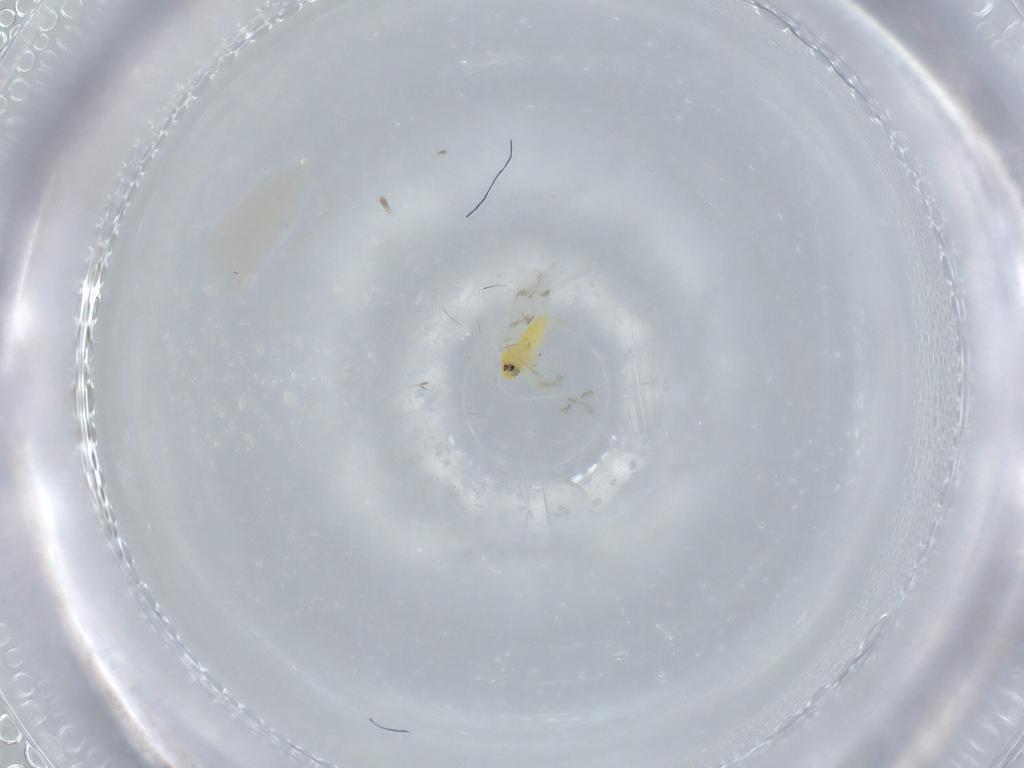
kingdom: Animalia
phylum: Arthropoda
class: Insecta
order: Hemiptera
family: Aleyrodidae
